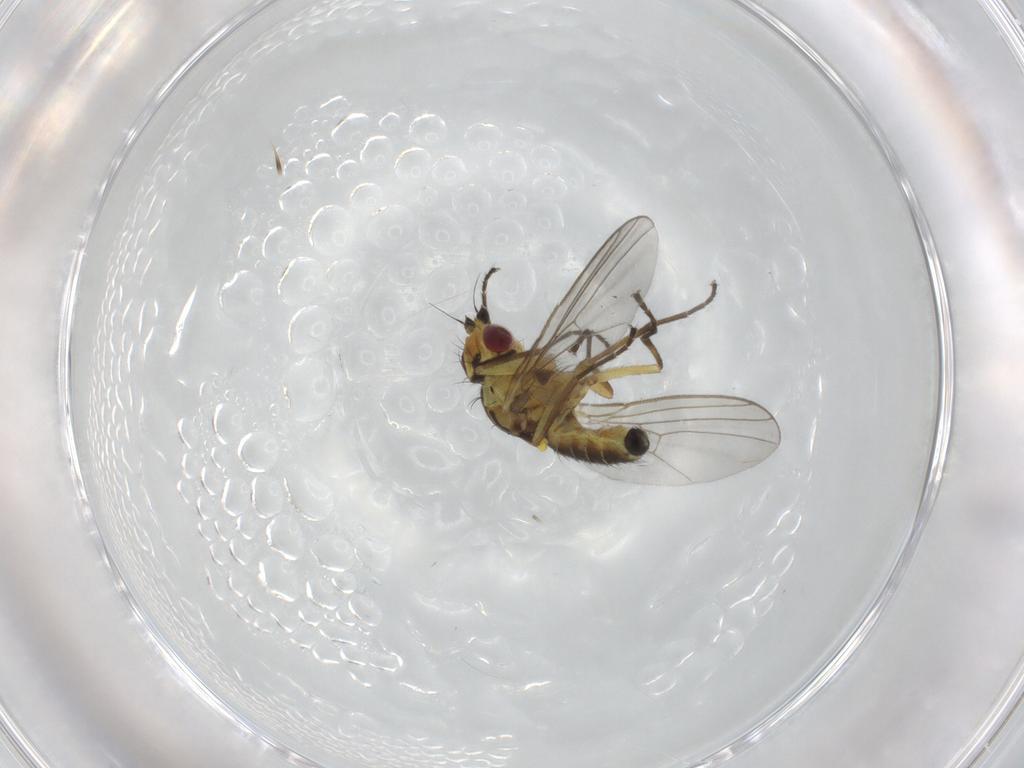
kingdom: Animalia
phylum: Arthropoda
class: Insecta
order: Diptera
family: Agromyzidae
